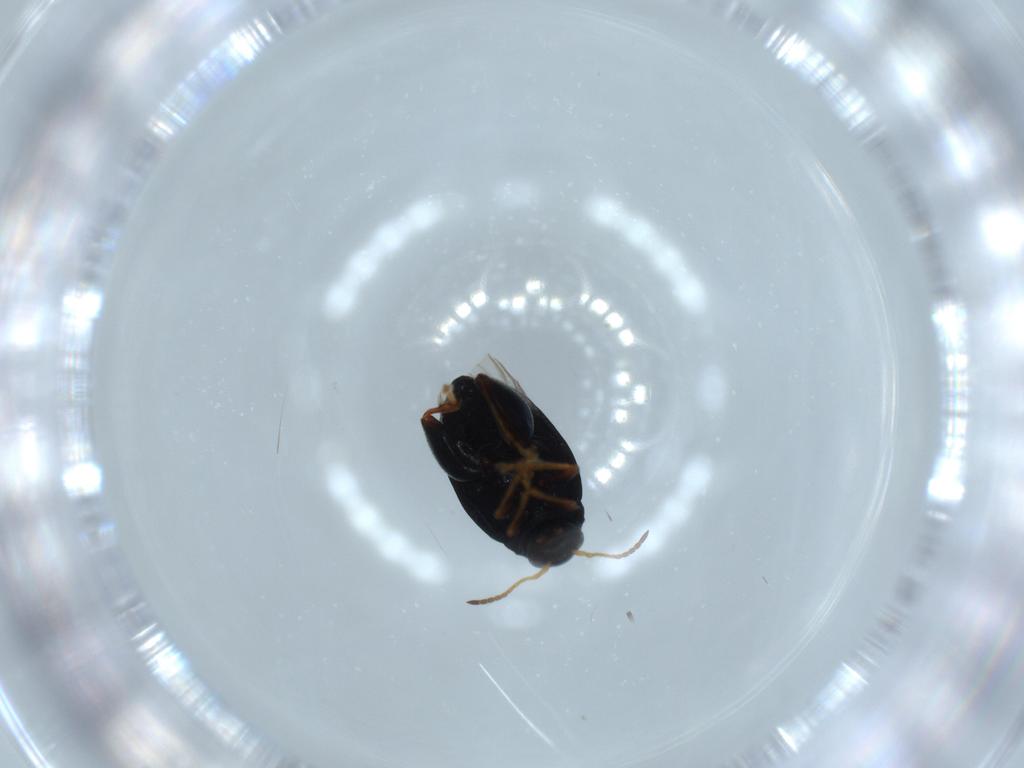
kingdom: Animalia
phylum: Arthropoda
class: Insecta
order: Coleoptera
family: Chrysomelidae
